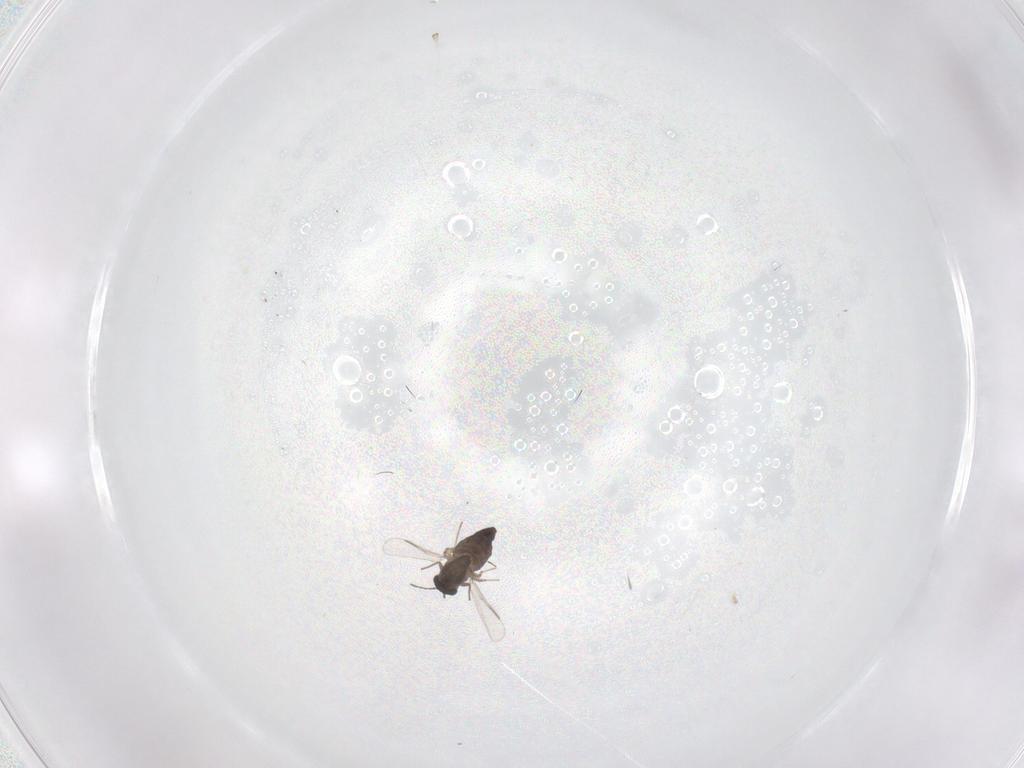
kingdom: Animalia
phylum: Arthropoda
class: Insecta
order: Diptera
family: Chironomidae
